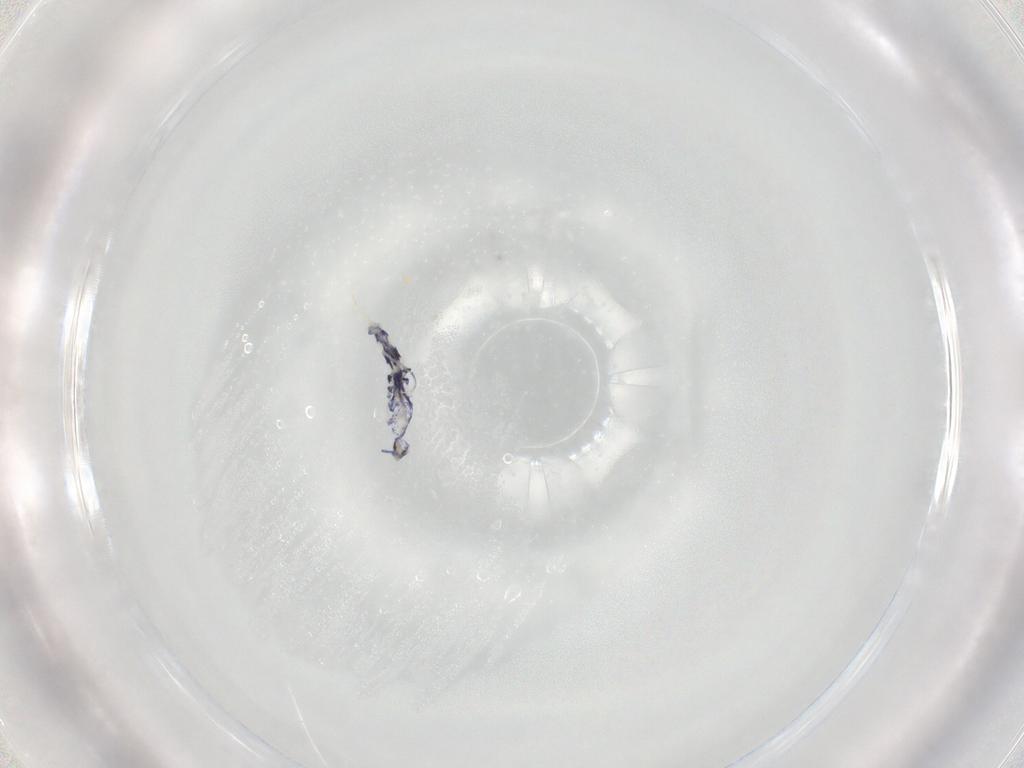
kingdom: Animalia
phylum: Arthropoda
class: Collembola
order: Entomobryomorpha
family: Entomobryidae
